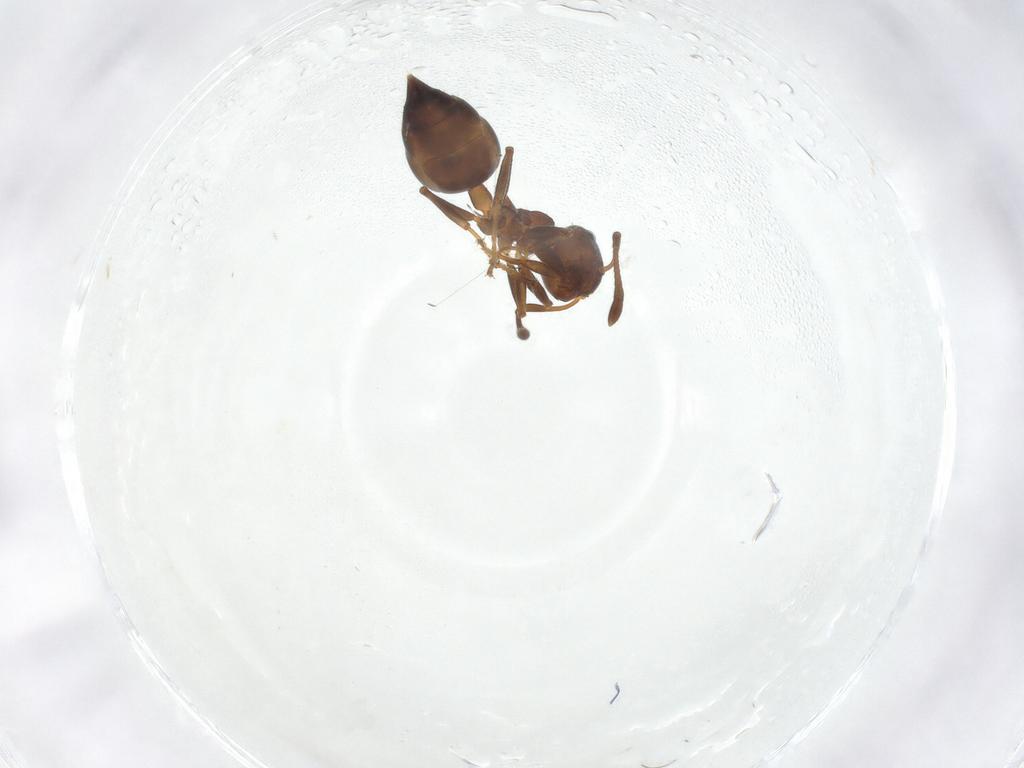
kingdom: Animalia
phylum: Arthropoda
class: Insecta
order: Hymenoptera
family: Formicidae
